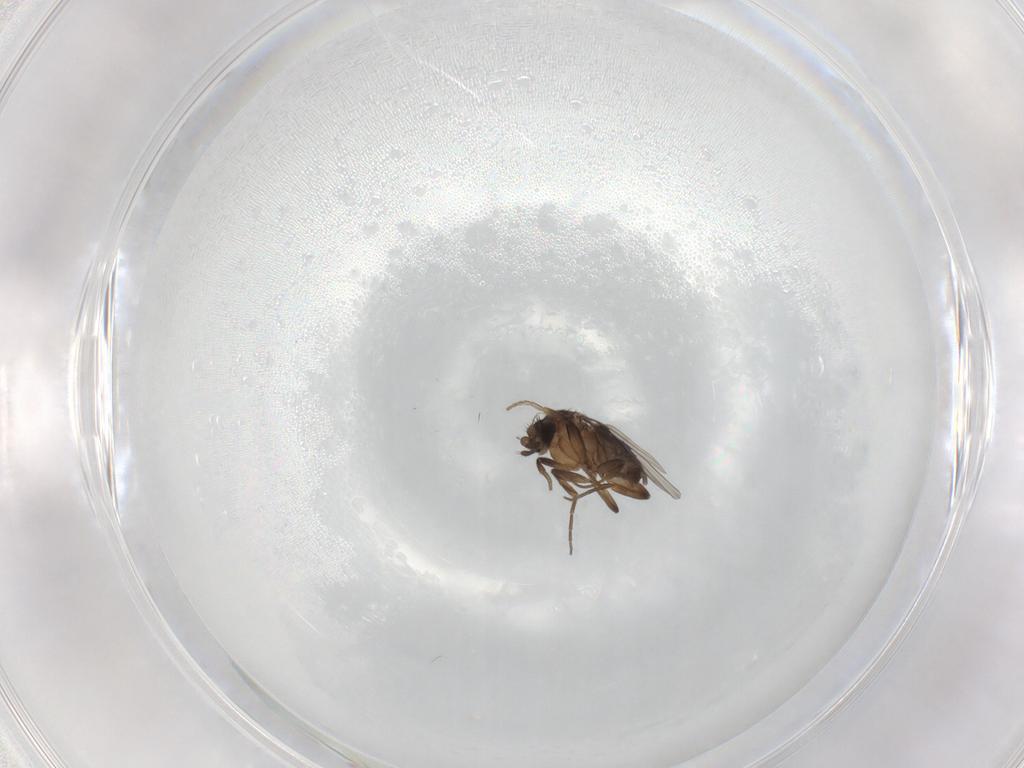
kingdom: Animalia
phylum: Arthropoda
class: Insecta
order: Diptera
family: Phoridae
